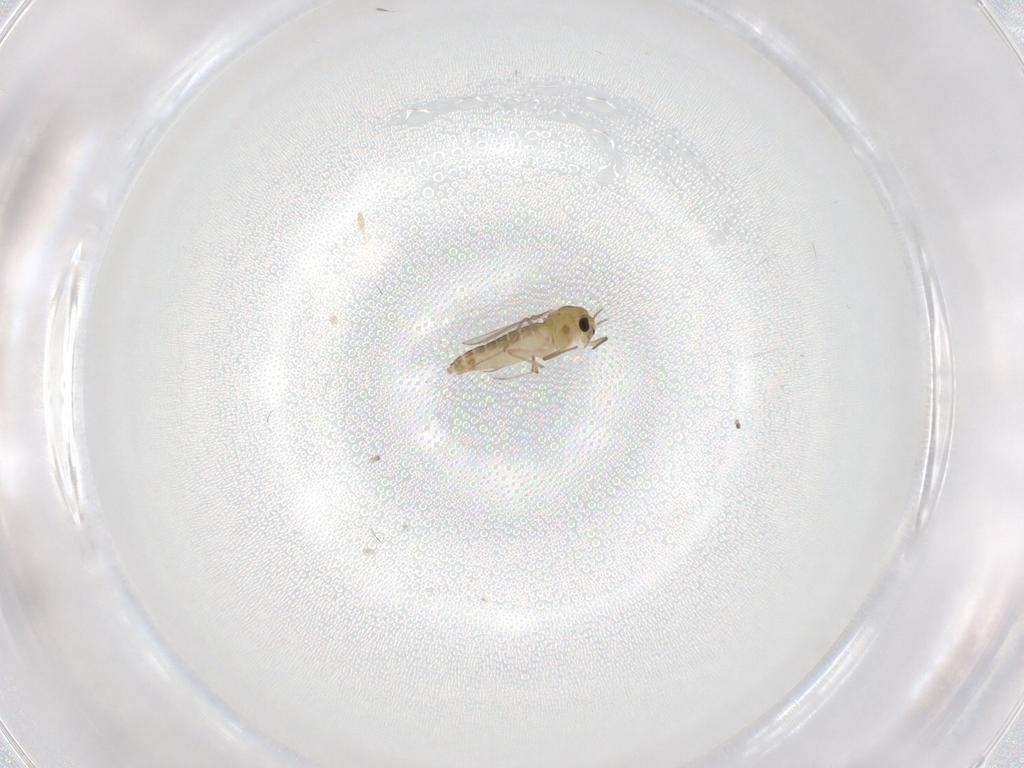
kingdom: Animalia
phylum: Arthropoda
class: Insecta
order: Diptera
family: Chironomidae
